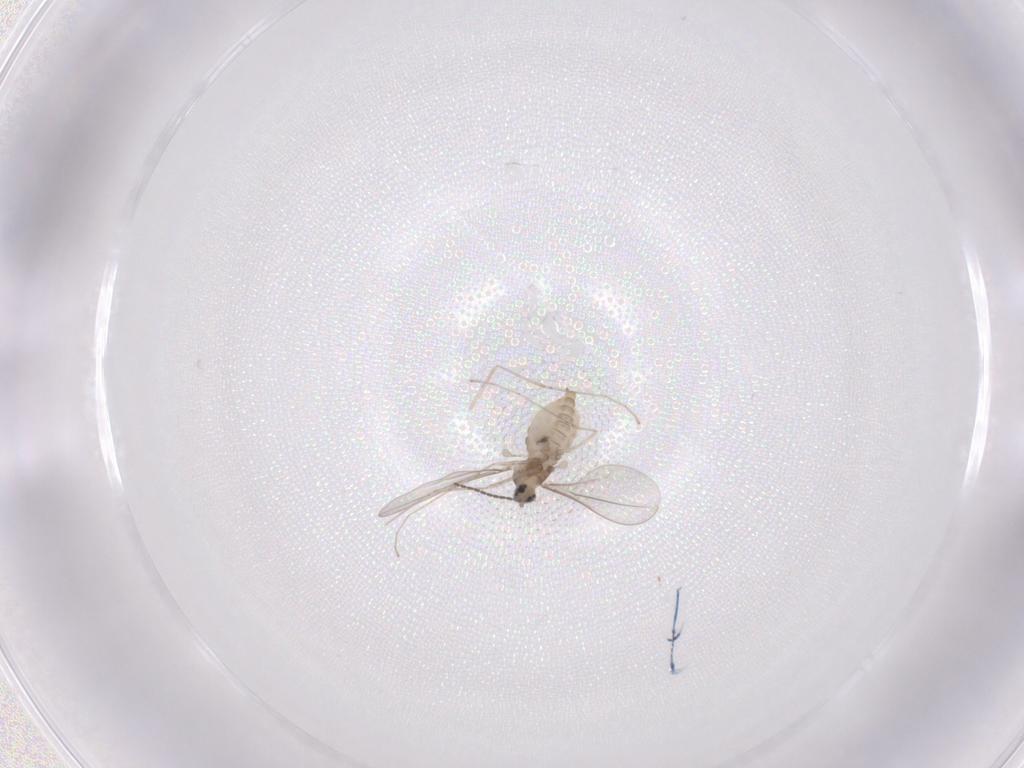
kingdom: Animalia
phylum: Arthropoda
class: Insecta
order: Diptera
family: Cecidomyiidae
